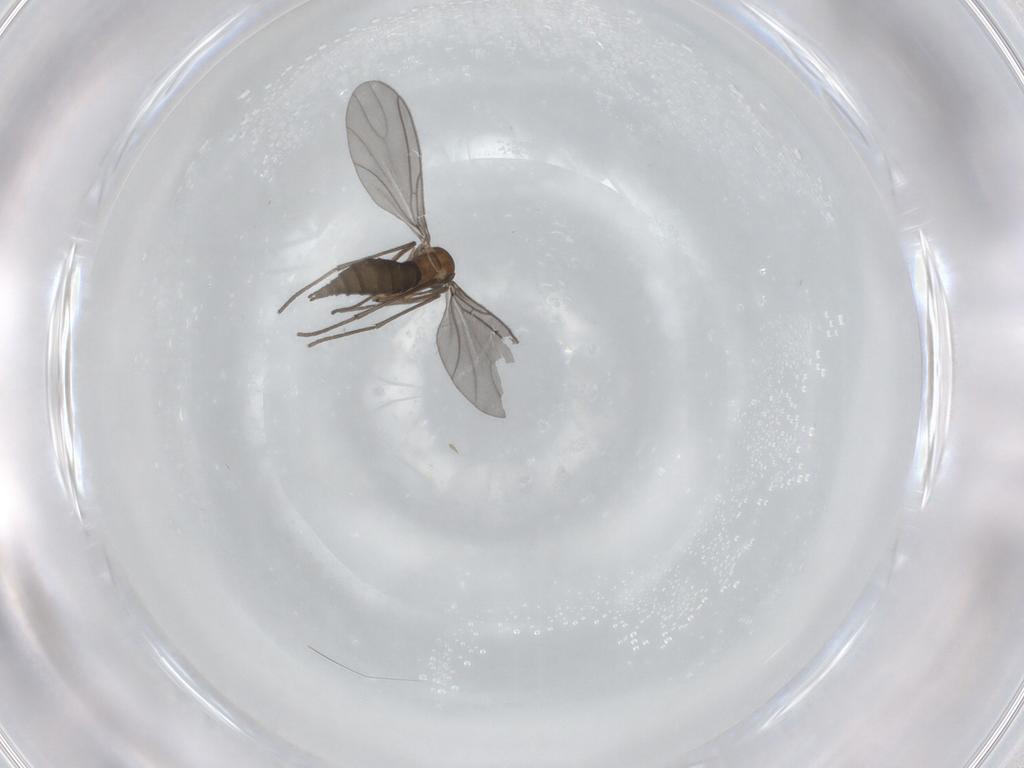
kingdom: Animalia
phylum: Arthropoda
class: Insecta
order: Diptera
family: Sciaridae
